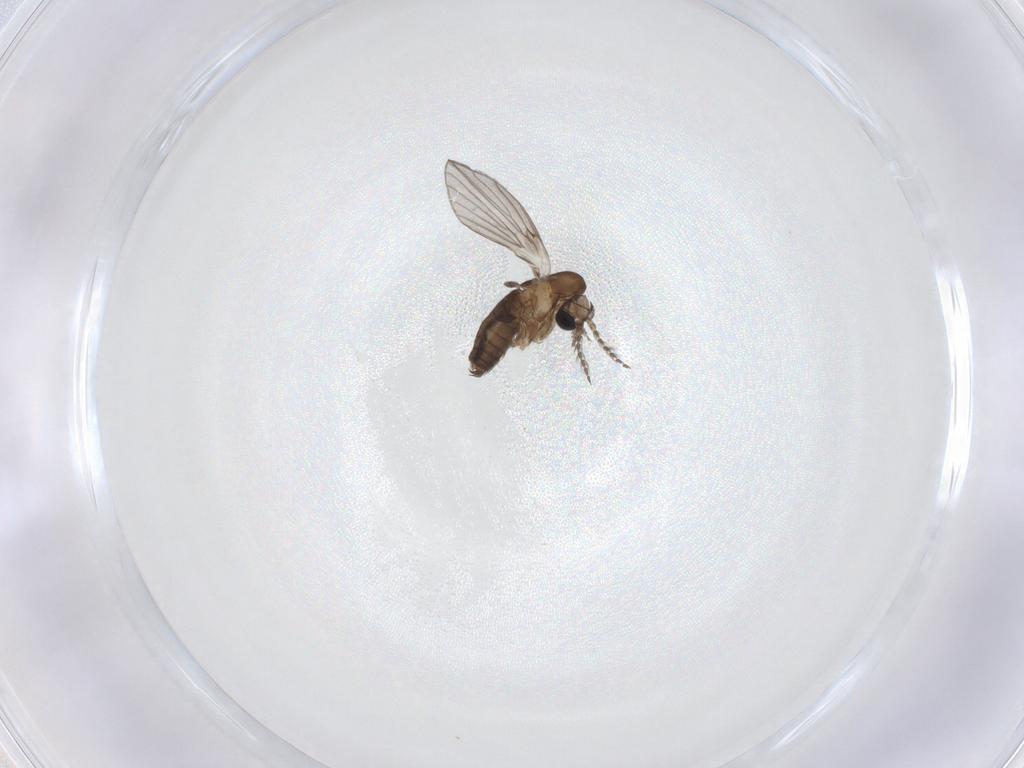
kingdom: Animalia
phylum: Arthropoda
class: Insecta
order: Diptera
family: Psychodidae
